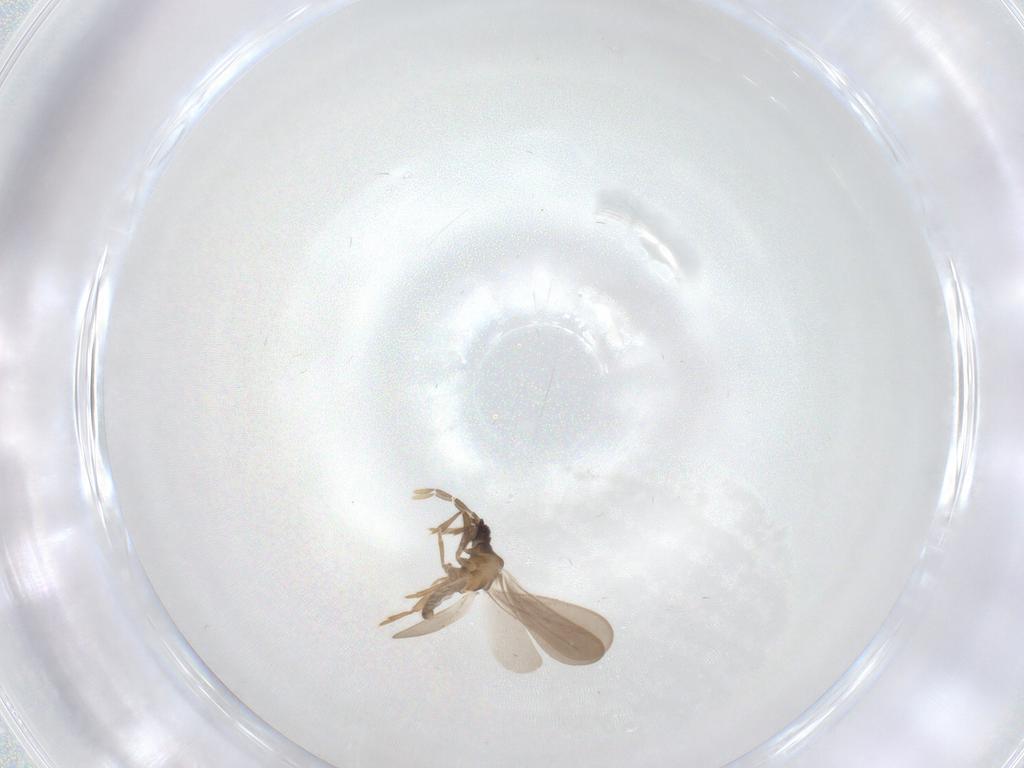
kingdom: Animalia
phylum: Arthropoda
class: Insecta
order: Hemiptera
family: Enicocephalidae
